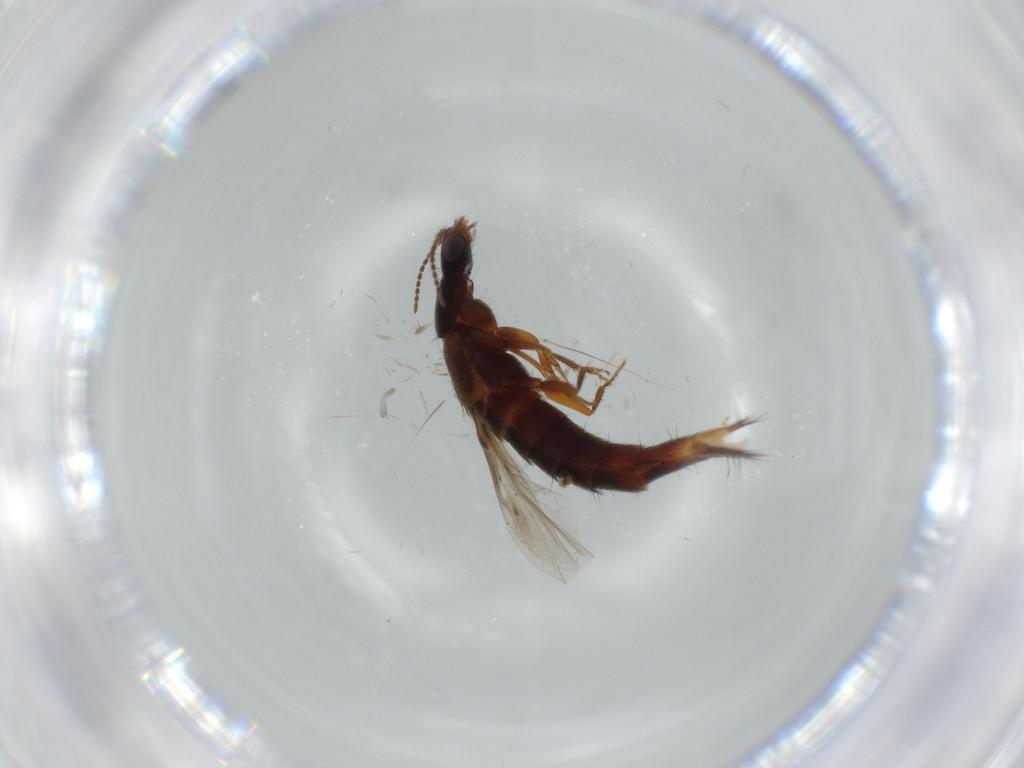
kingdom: Animalia
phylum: Arthropoda
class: Insecta
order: Coleoptera
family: Staphylinidae
